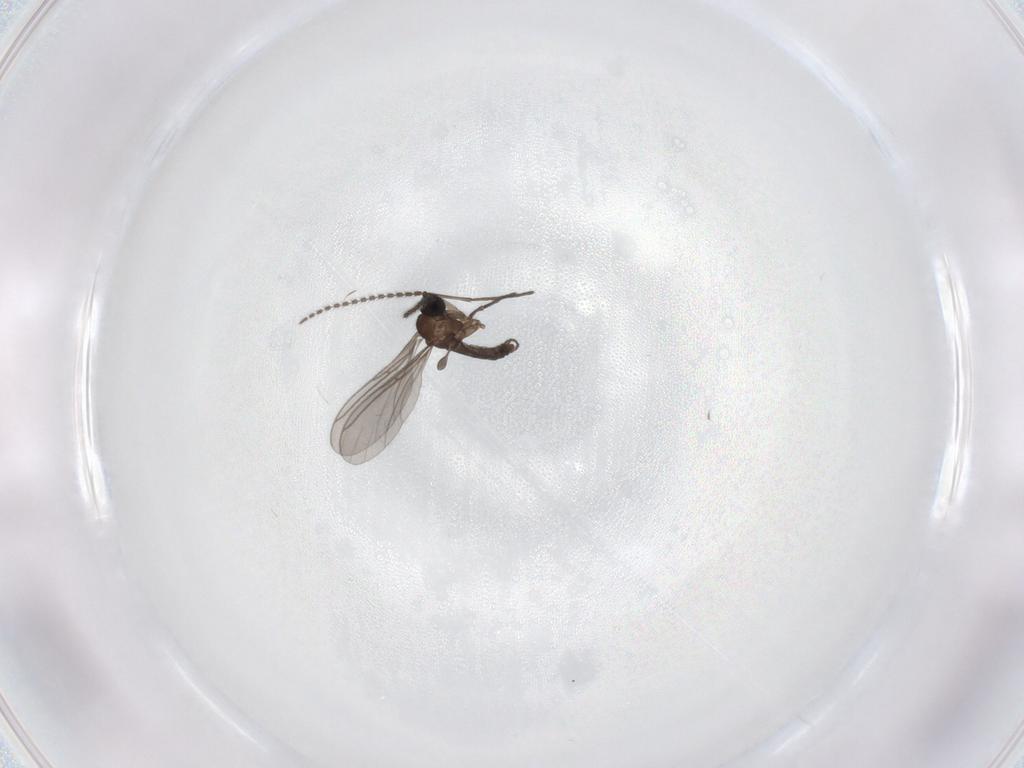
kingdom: Animalia
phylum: Arthropoda
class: Insecta
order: Diptera
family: Sciaridae
